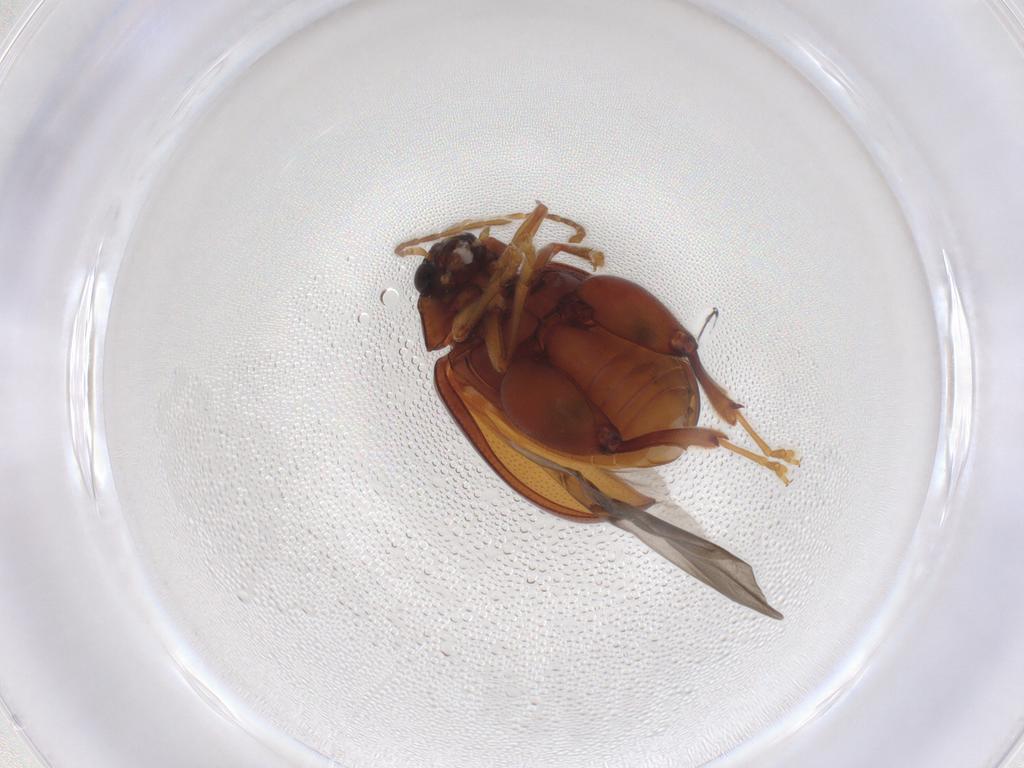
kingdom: Animalia
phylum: Arthropoda
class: Insecta
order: Coleoptera
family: Chrysomelidae
